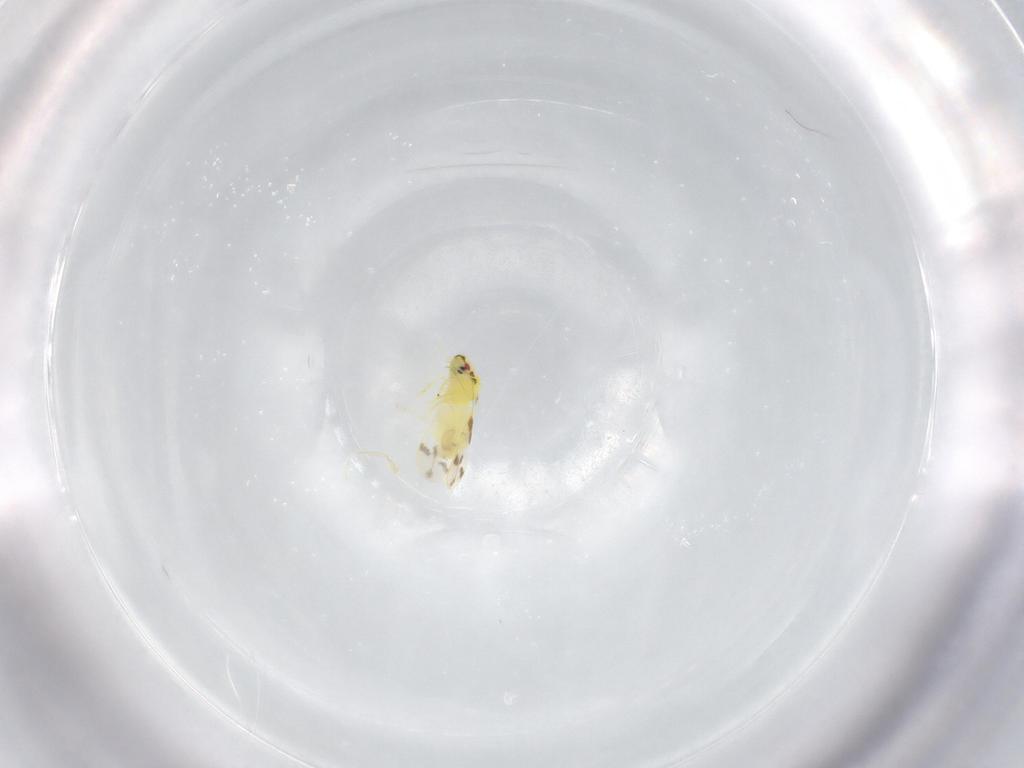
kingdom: Animalia
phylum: Arthropoda
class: Insecta
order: Hemiptera
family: Aleyrodidae
